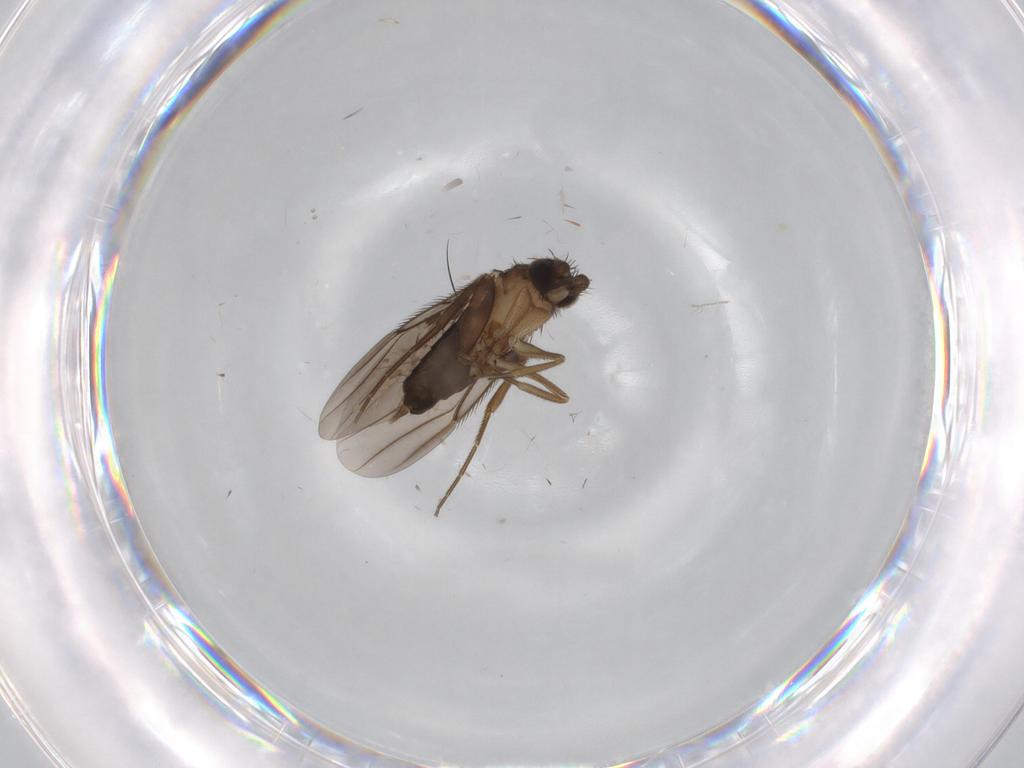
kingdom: Animalia
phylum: Arthropoda
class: Insecta
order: Diptera
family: Chironomidae
